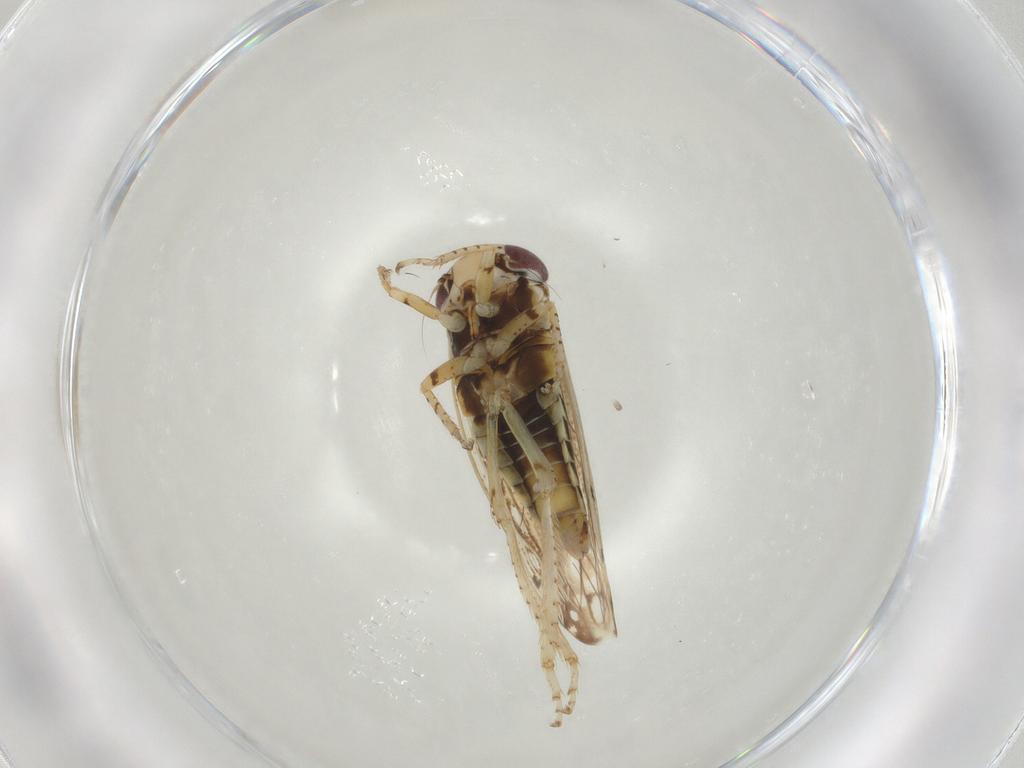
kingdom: Animalia
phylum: Arthropoda
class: Insecta
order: Hemiptera
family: Cicadellidae
